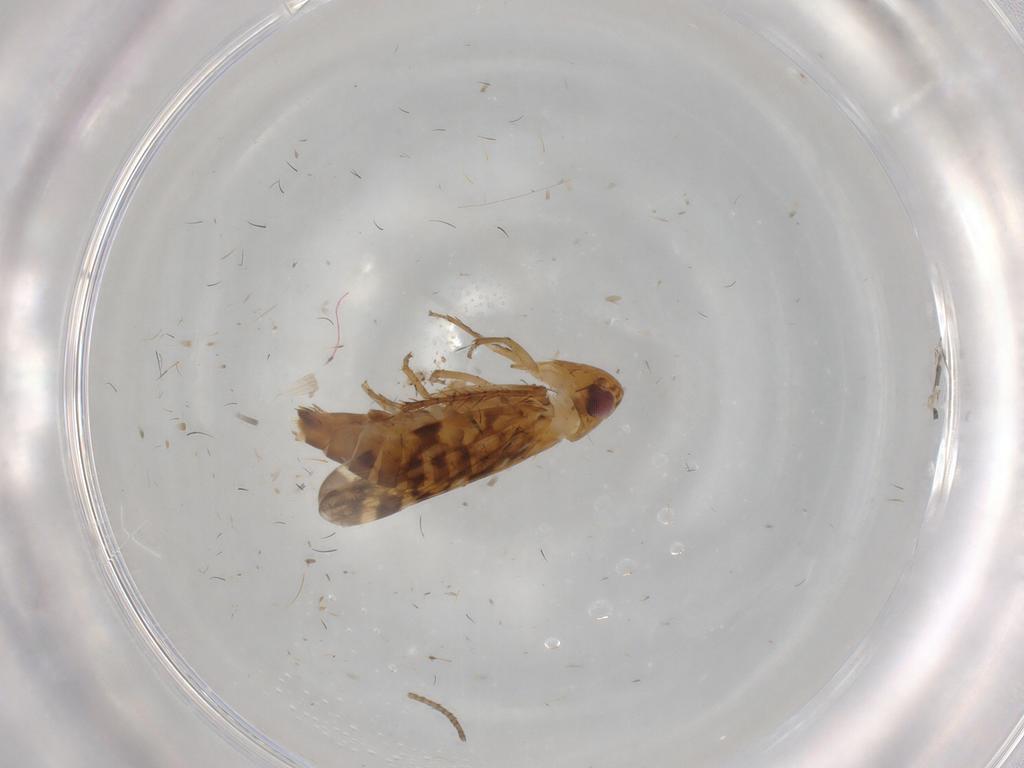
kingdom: Animalia
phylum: Arthropoda
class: Insecta
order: Hemiptera
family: Cicadellidae
